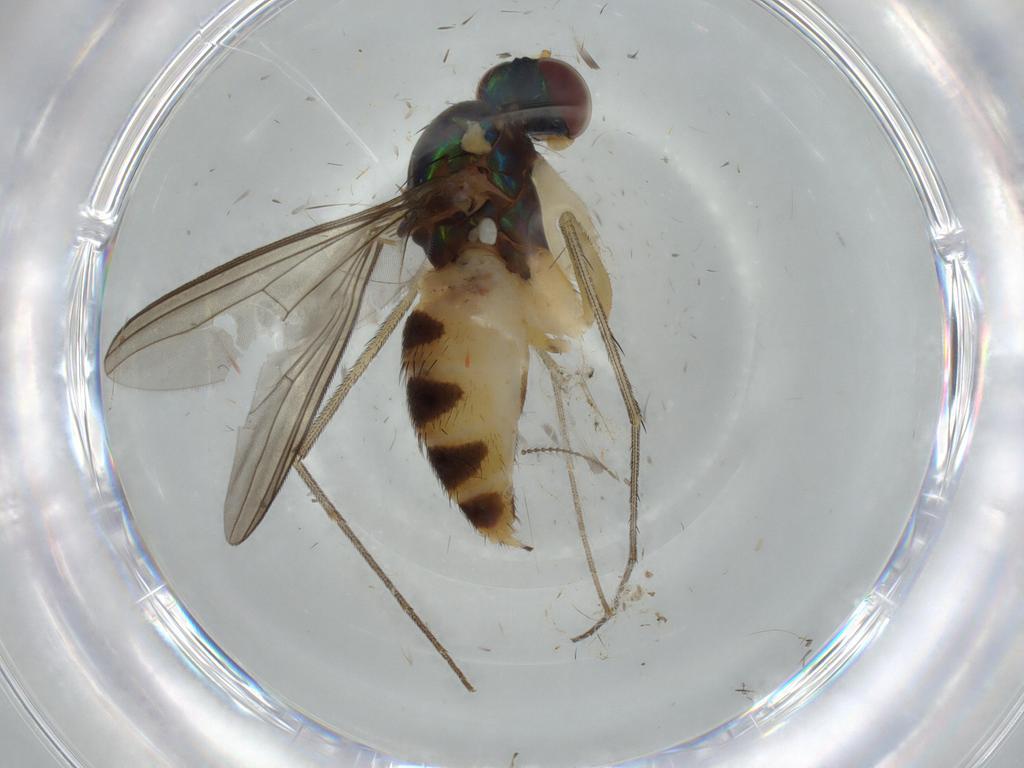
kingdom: Animalia
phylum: Arthropoda
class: Insecta
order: Diptera
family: Dolichopodidae
